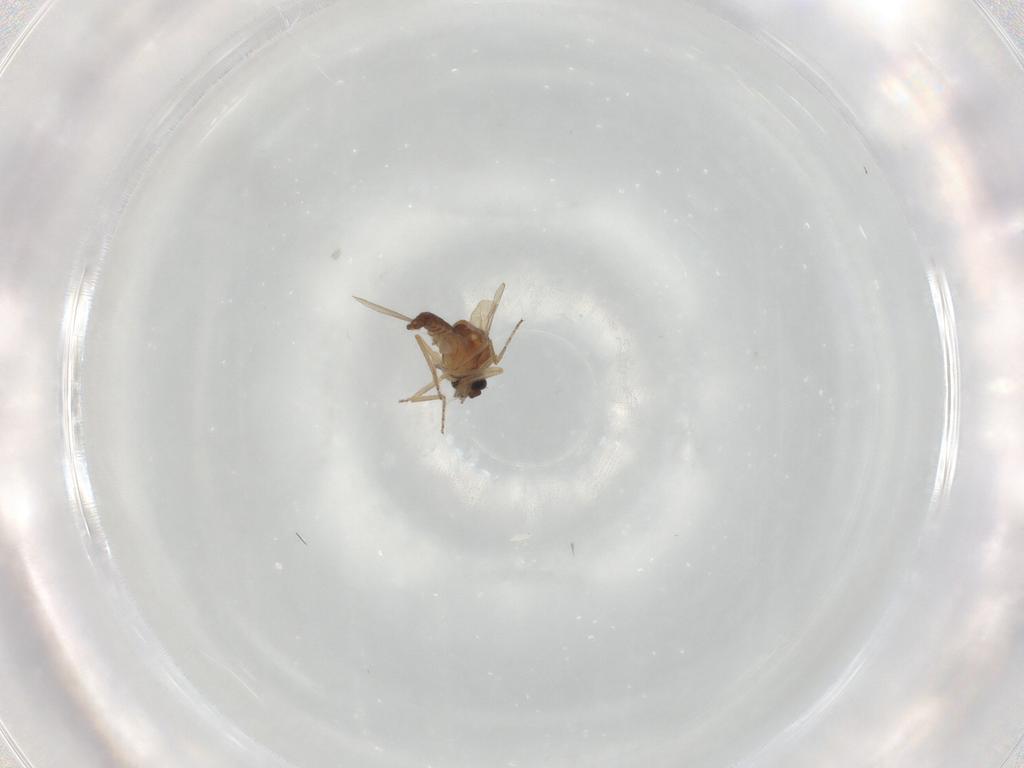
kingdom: Animalia
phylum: Arthropoda
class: Insecta
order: Diptera
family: Ceratopogonidae
